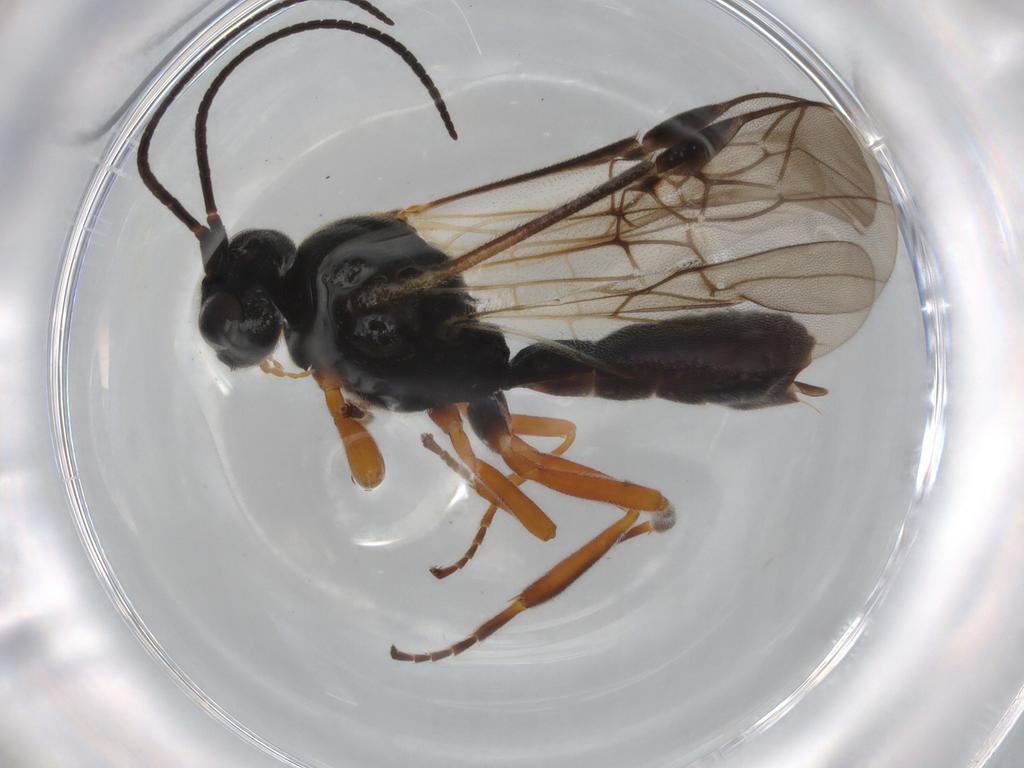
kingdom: Animalia
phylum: Arthropoda
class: Insecta
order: Hymenoptera
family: Braconidae
